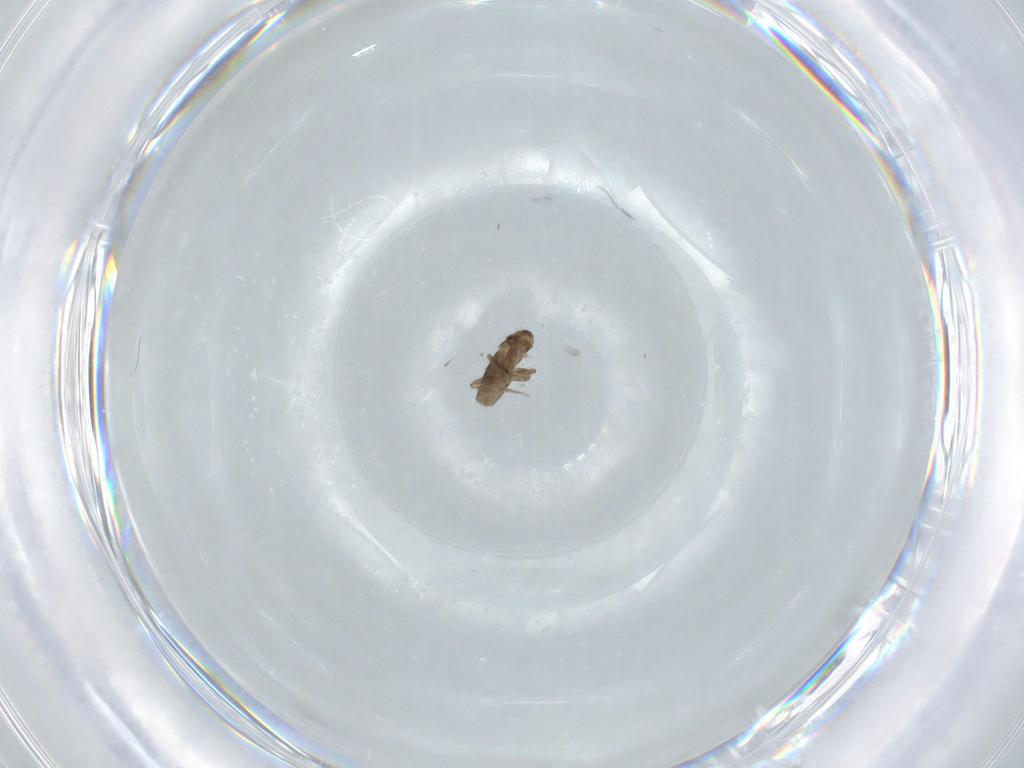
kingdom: Animalia
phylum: Arthropoda
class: Insecta
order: Diptera
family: Phoridae
